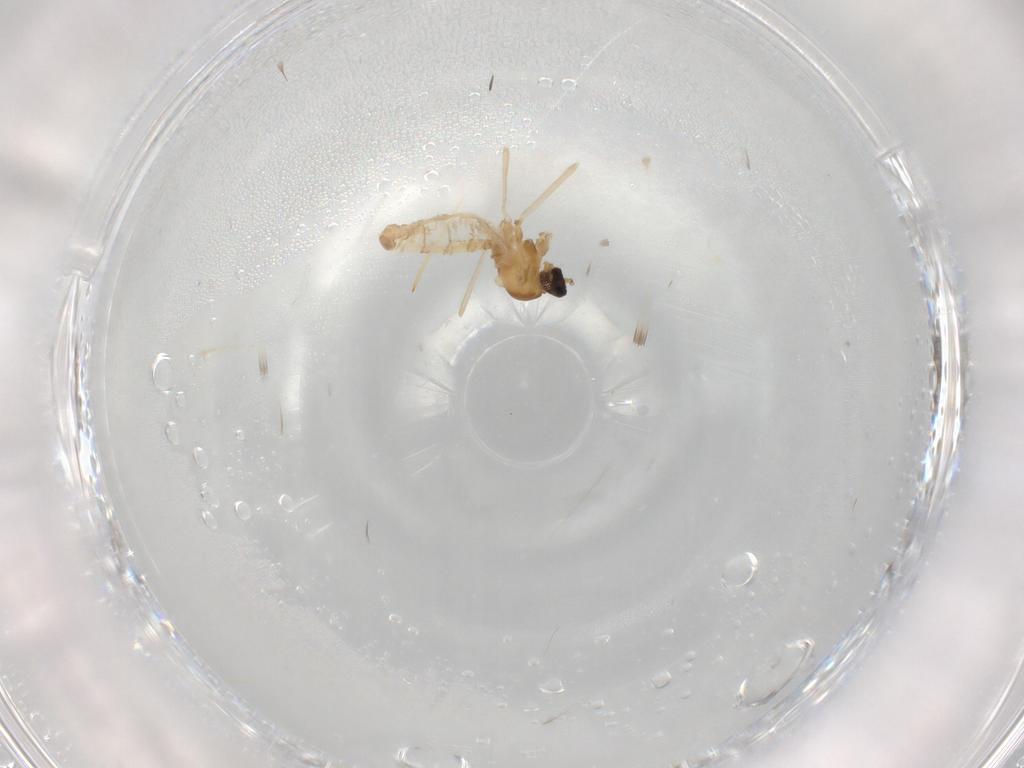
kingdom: Animalia
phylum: Arthropoda
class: Insecta
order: Diptera
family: Cecidomyiidae
